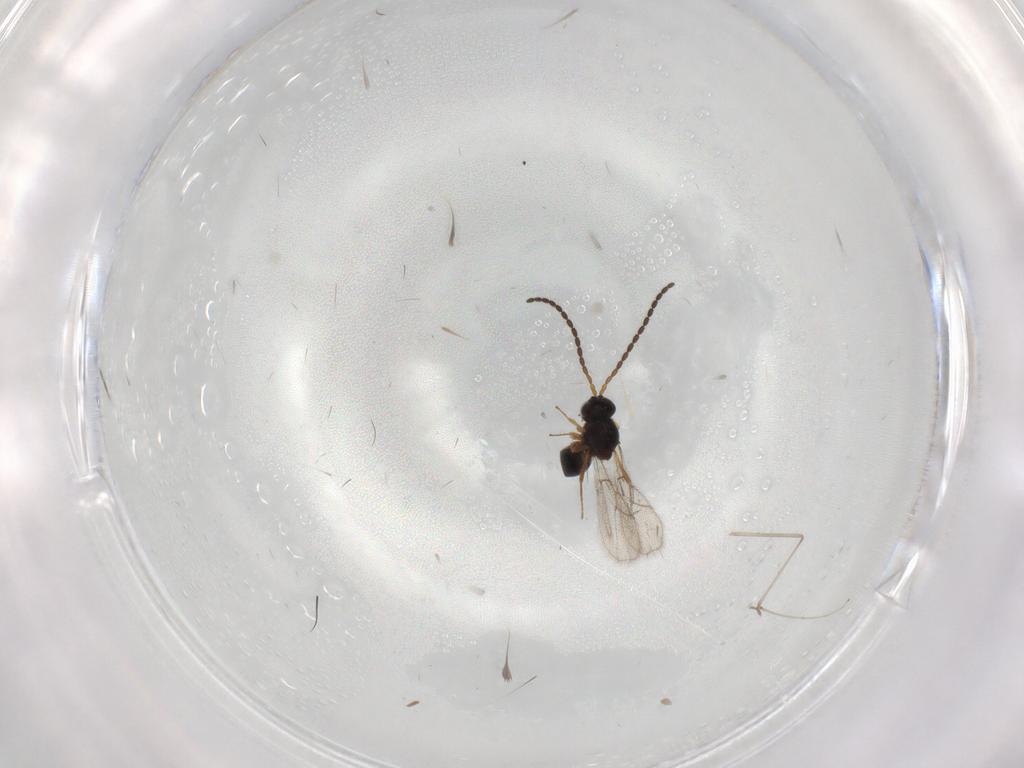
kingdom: Animalia
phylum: Arthropoda
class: Insecta
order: Hymenoptera
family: Figitidae
